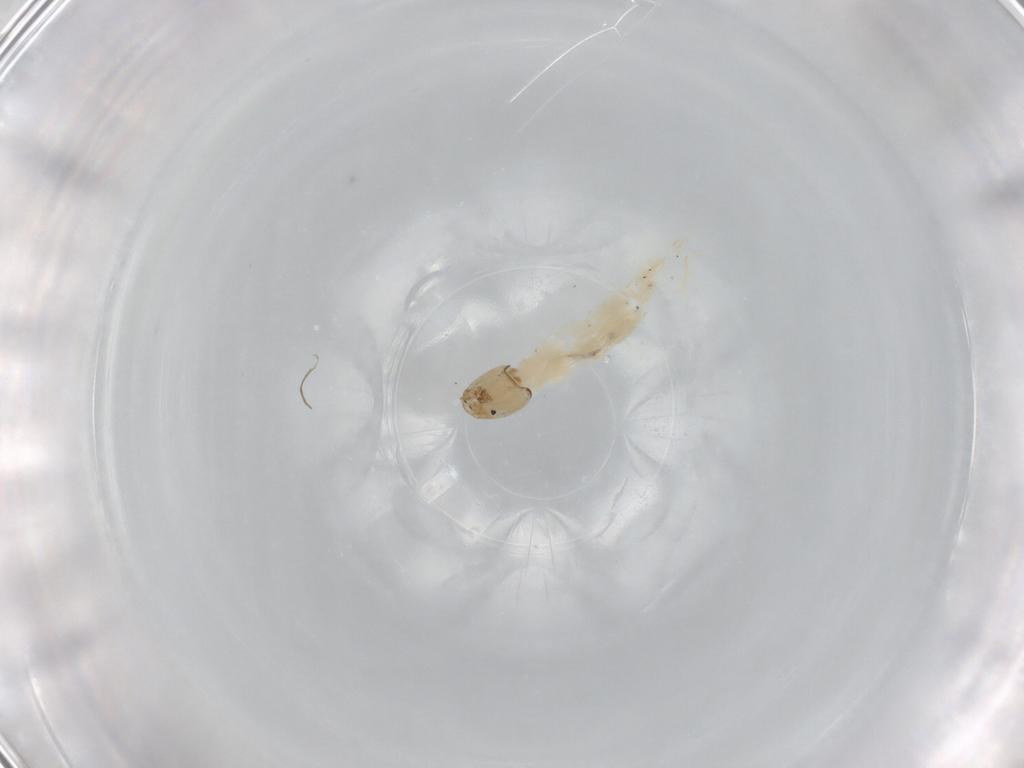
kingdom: Animalia
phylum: Arthropoda
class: Insecta
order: Diptera
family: Chironomidae
